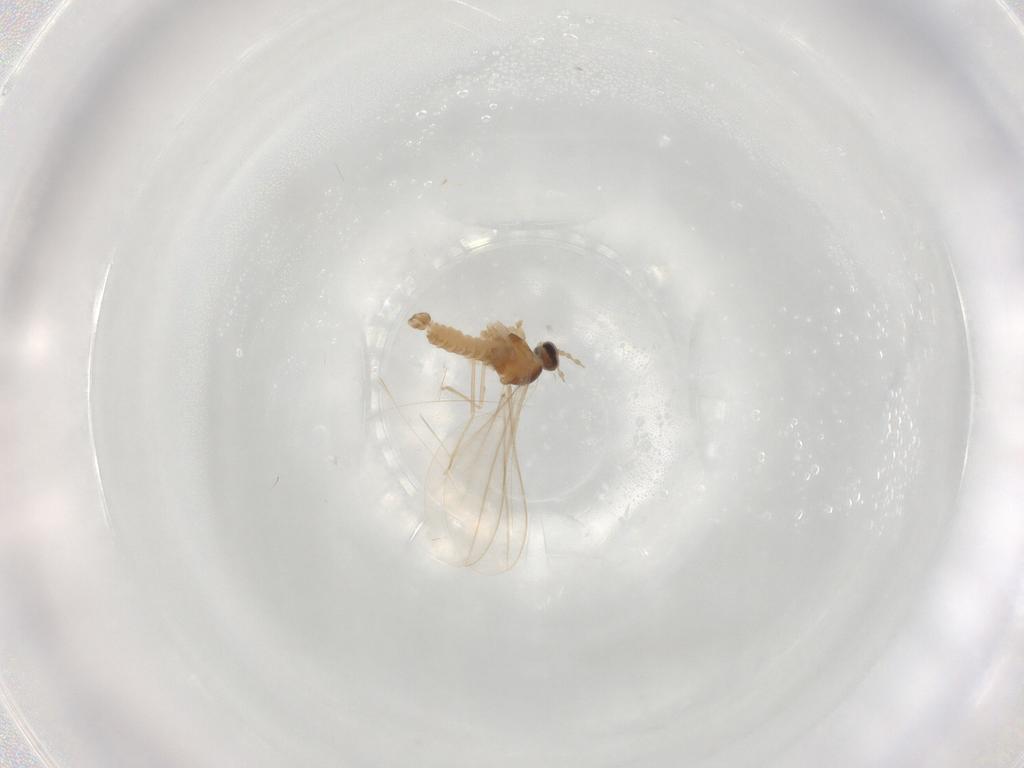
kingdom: Animalia
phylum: Arthropoda
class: Insecta
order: Diptera
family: Cecidomyiidae
